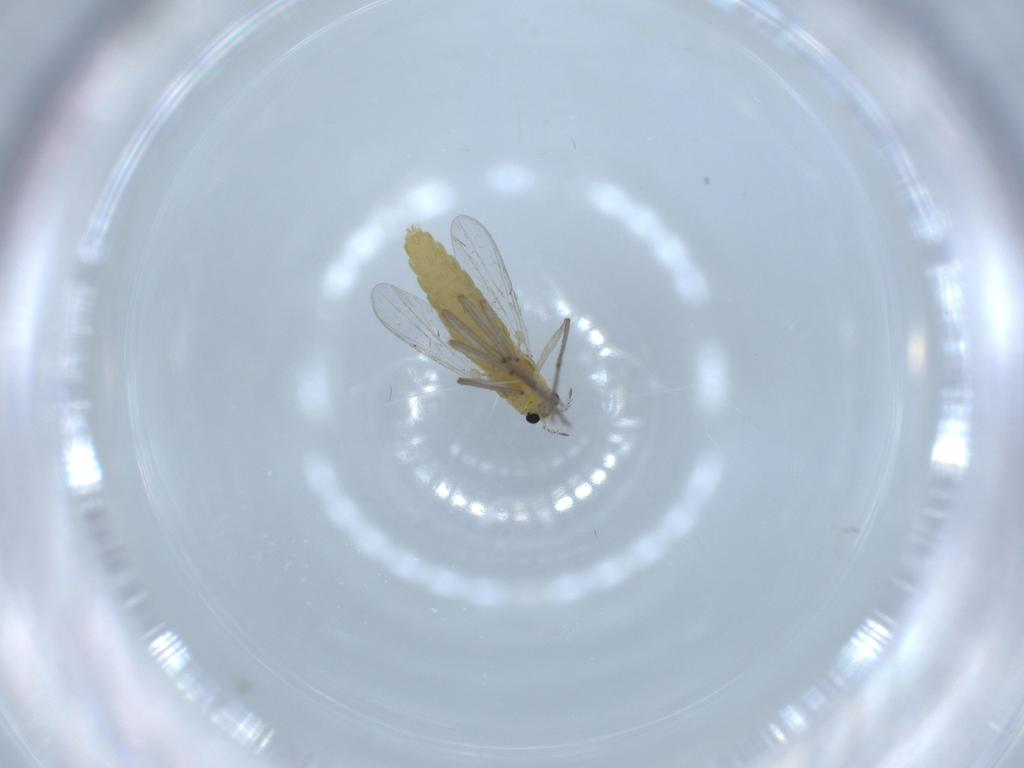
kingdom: Animalia
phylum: Arthropoda
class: Insecta
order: Diptera
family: Chironomidae
